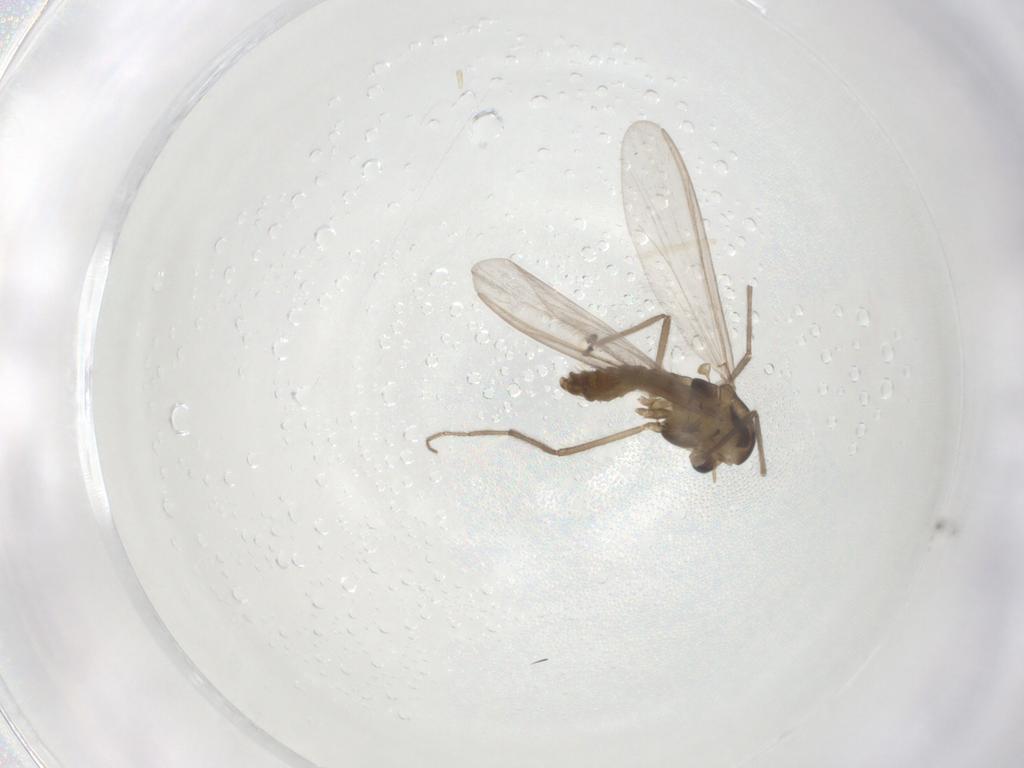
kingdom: Animalia
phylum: Arthropoda
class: Insecta
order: Diptera
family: Chironomidae
